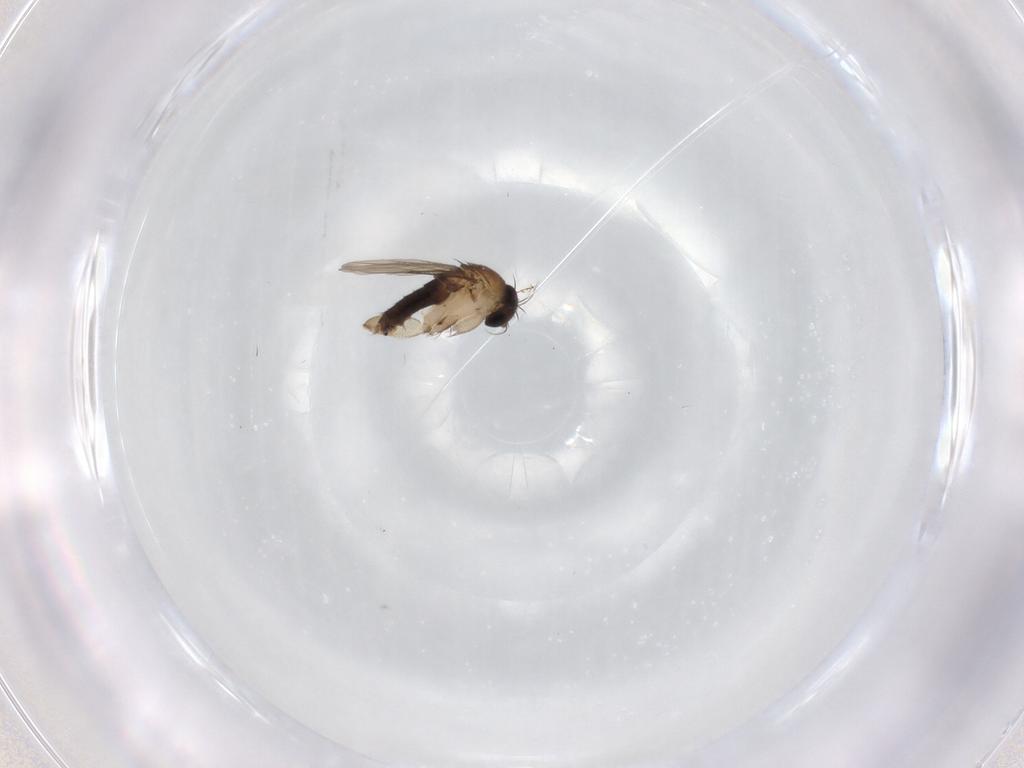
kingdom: Animalia
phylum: Arthropoda
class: Insecta
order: Diptera
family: Phoridae
